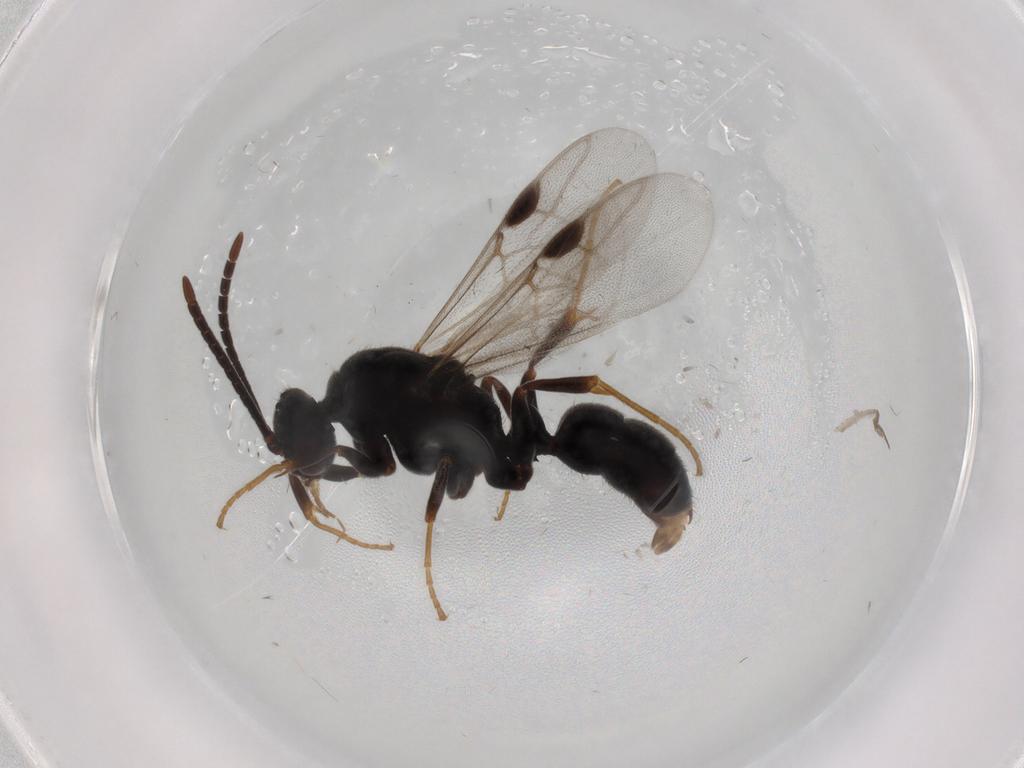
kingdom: Animalia
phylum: Arthropoda
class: Insecta
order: Hymenoptera
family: Formicidae
